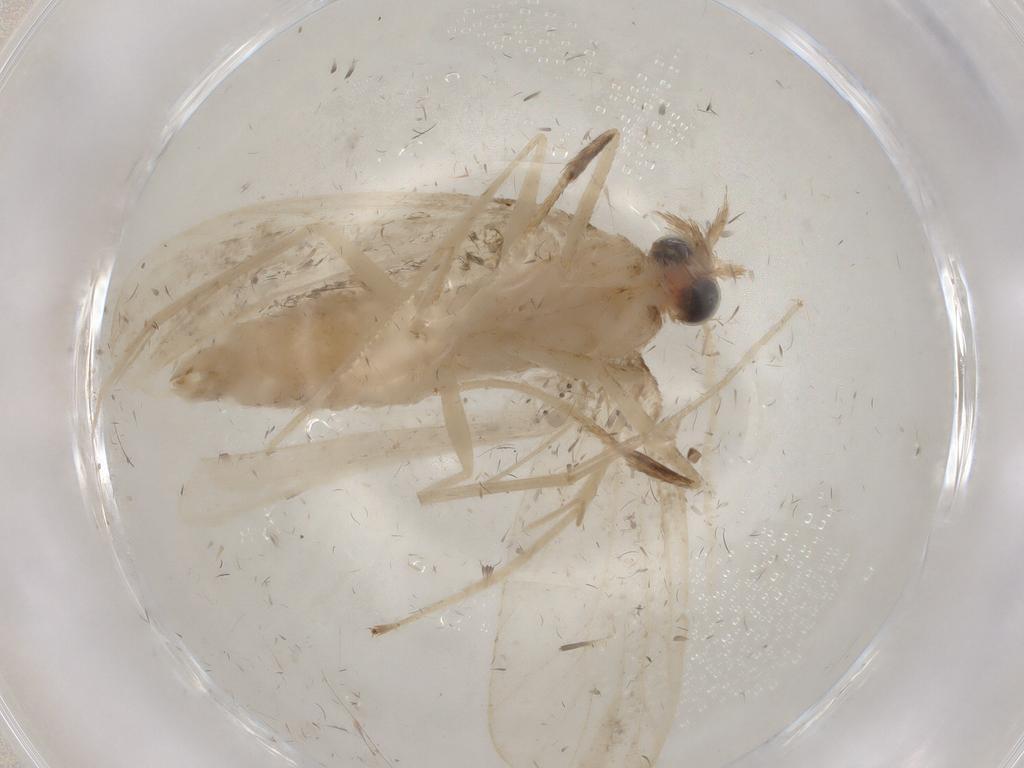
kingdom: Animalia
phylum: Arthropoda
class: Insecta
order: Lepidoptera
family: Crambidae
